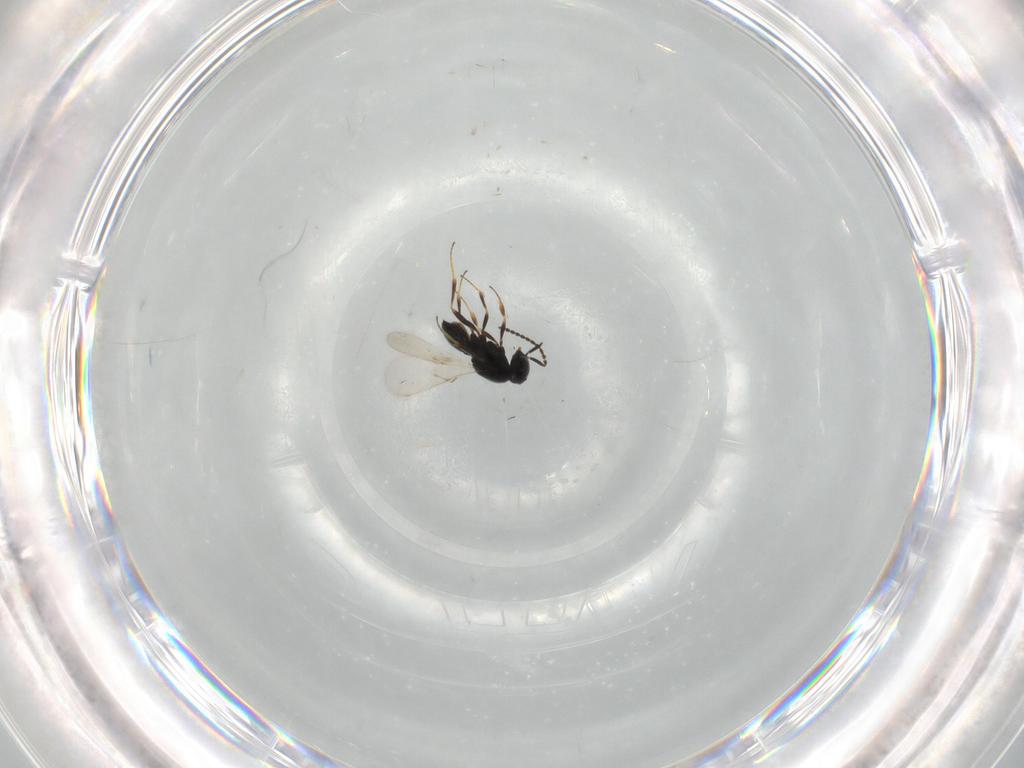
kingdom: Animalia
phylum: Arthropoda
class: Insecta
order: Hymenoptera
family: Scelionidae
